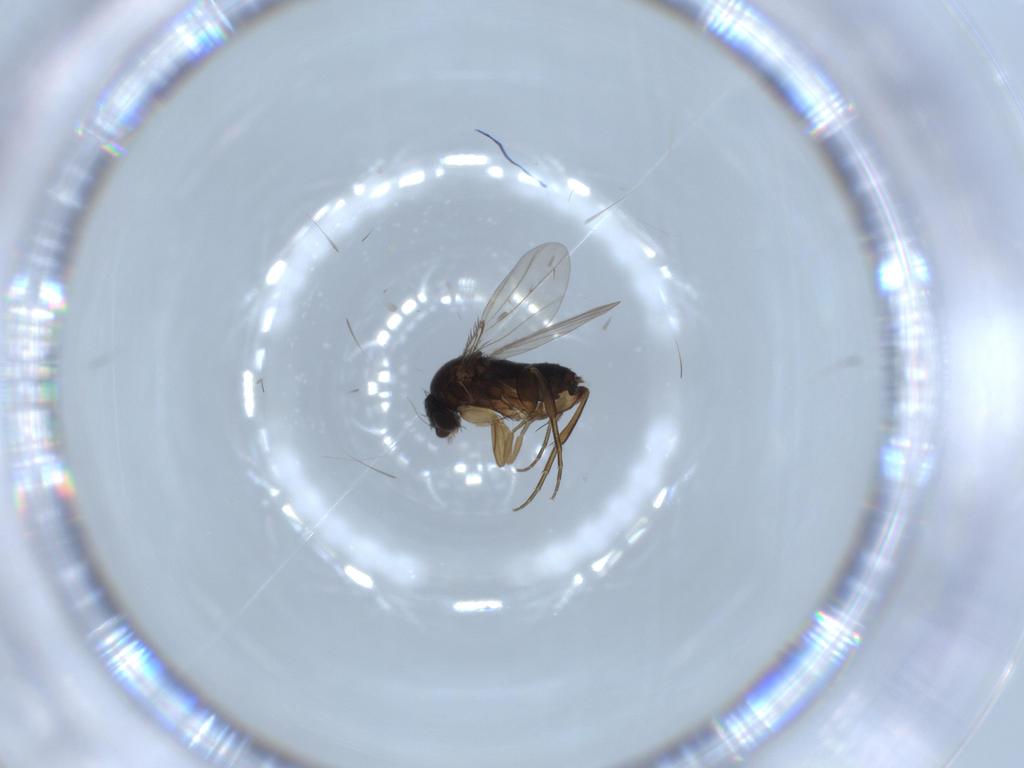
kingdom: Animalia
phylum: Arthropoda
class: Insecta
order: Diptera
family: Phoridae
